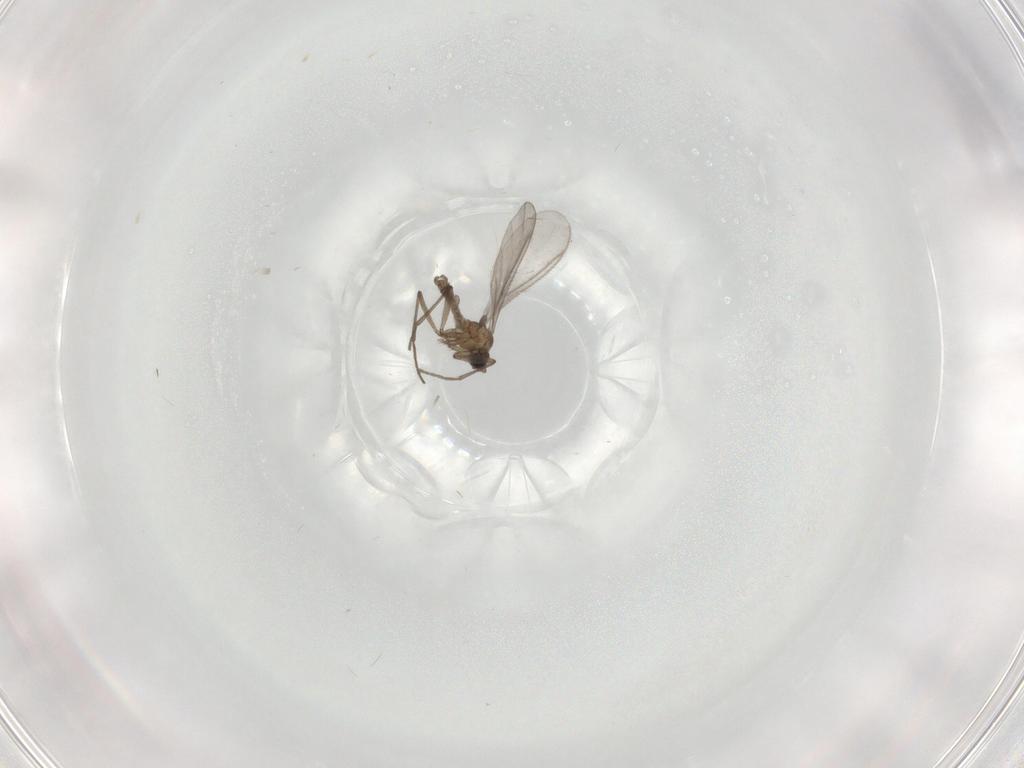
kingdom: Animalia
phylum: Arthropoda
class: Insecta
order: Diptera
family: Sciaridae
